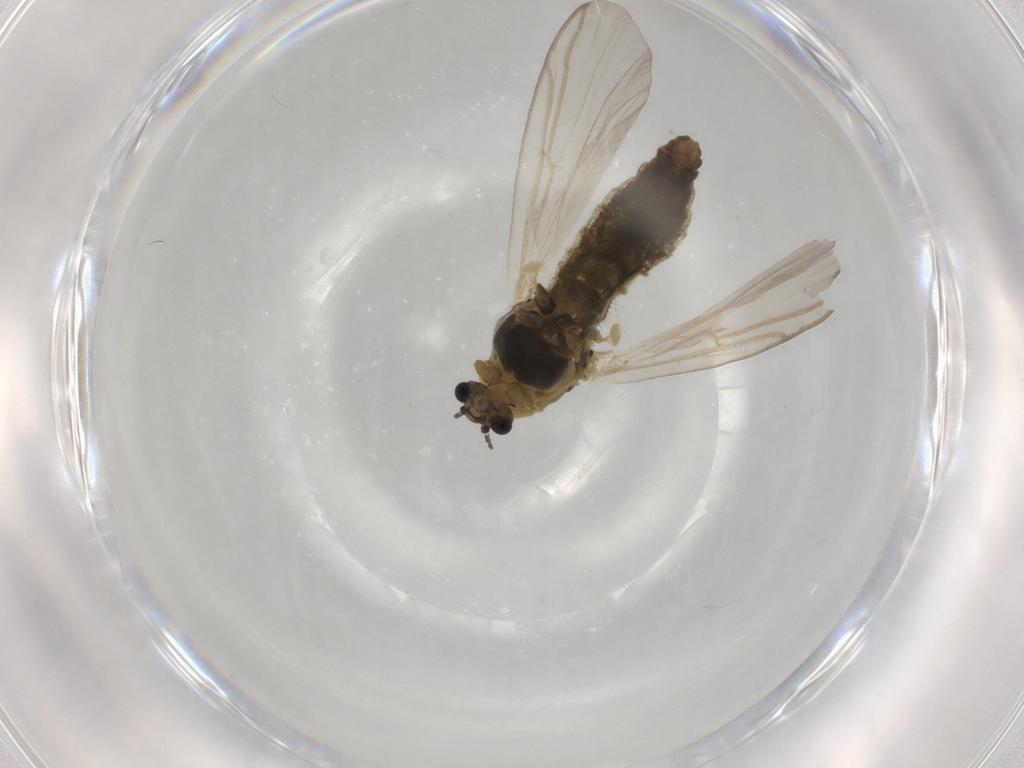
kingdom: Animalia
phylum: Arthropoda
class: Insecta
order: Diptera
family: Chironomidae
